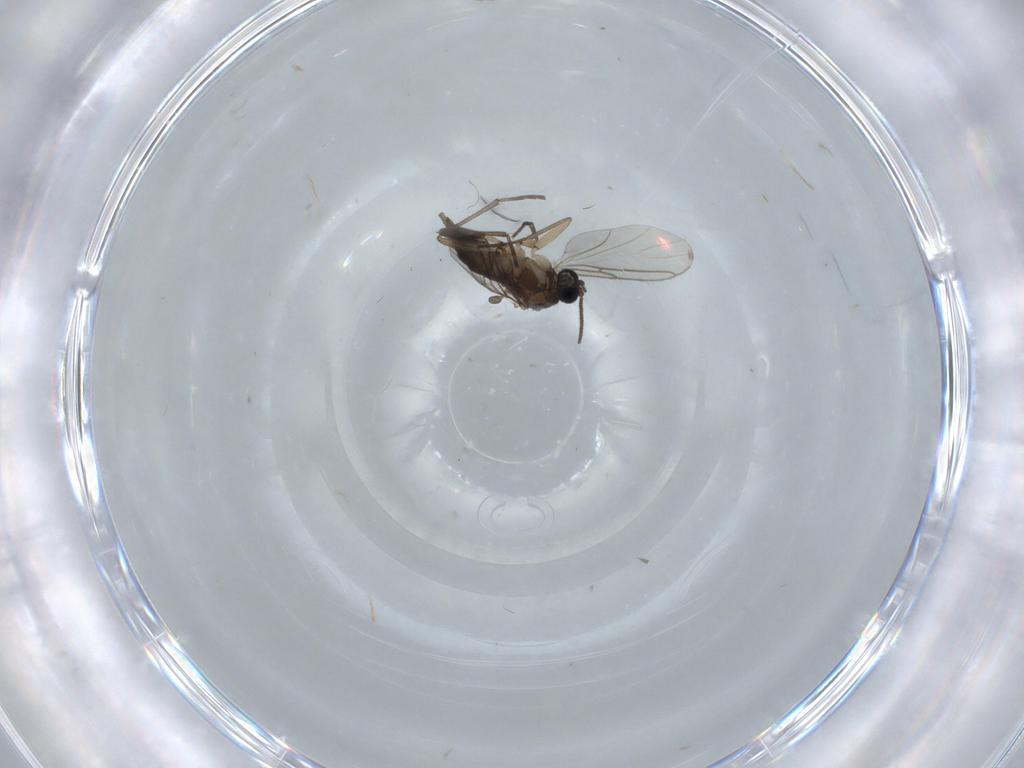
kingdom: Animalia
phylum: Arthropoda
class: Insecta
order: Diptera
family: Sciaridae
